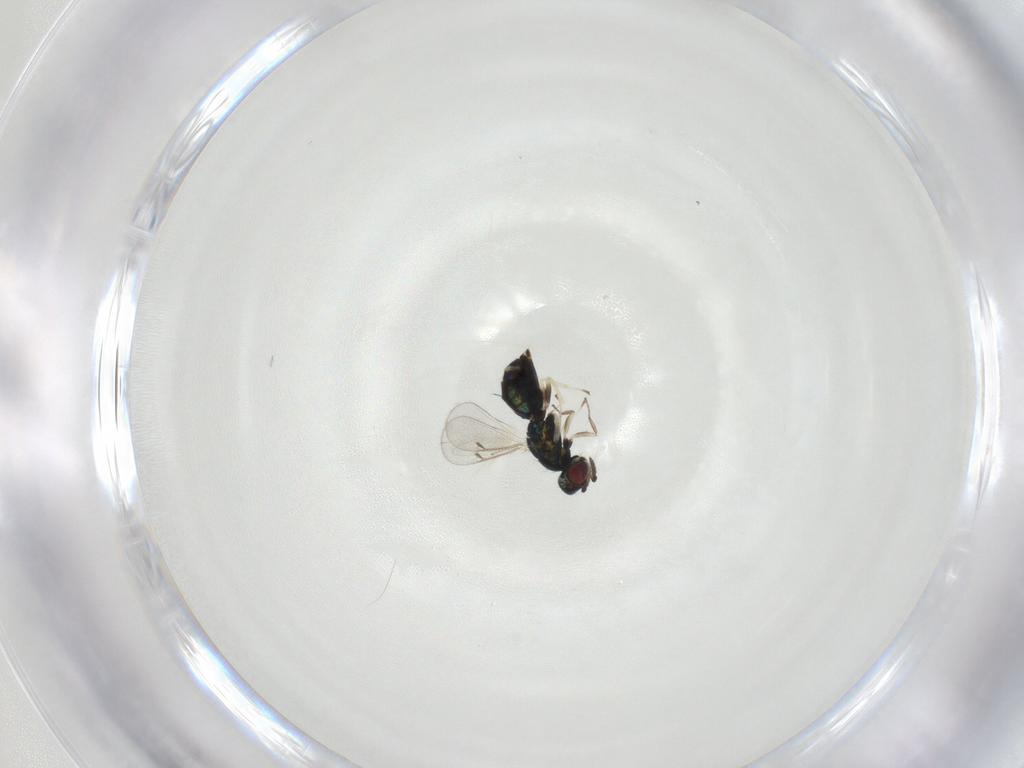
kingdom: Animalia
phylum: Arthropoda
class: Insecta
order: Hymenoptera
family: Eulophidae
